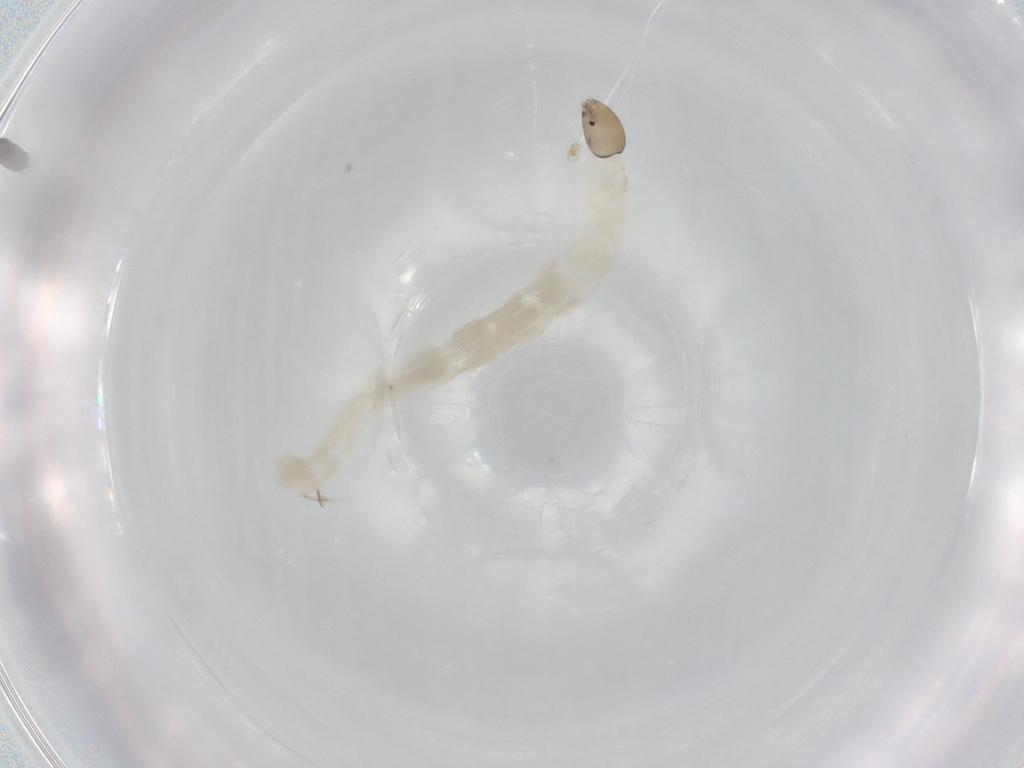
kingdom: Animalia
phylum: Arthropoda
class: Insecta
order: Diptera
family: Chironomidae
